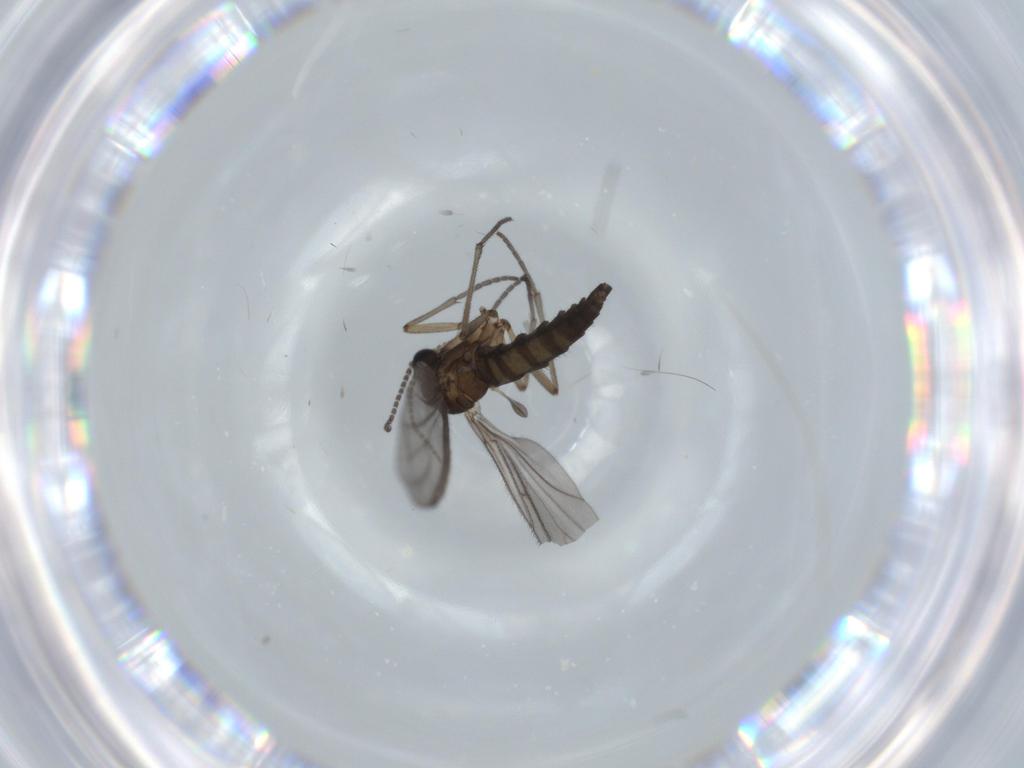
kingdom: Animalia
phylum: Arthropoda
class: Insecta
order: Diptera
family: Sciaridae
